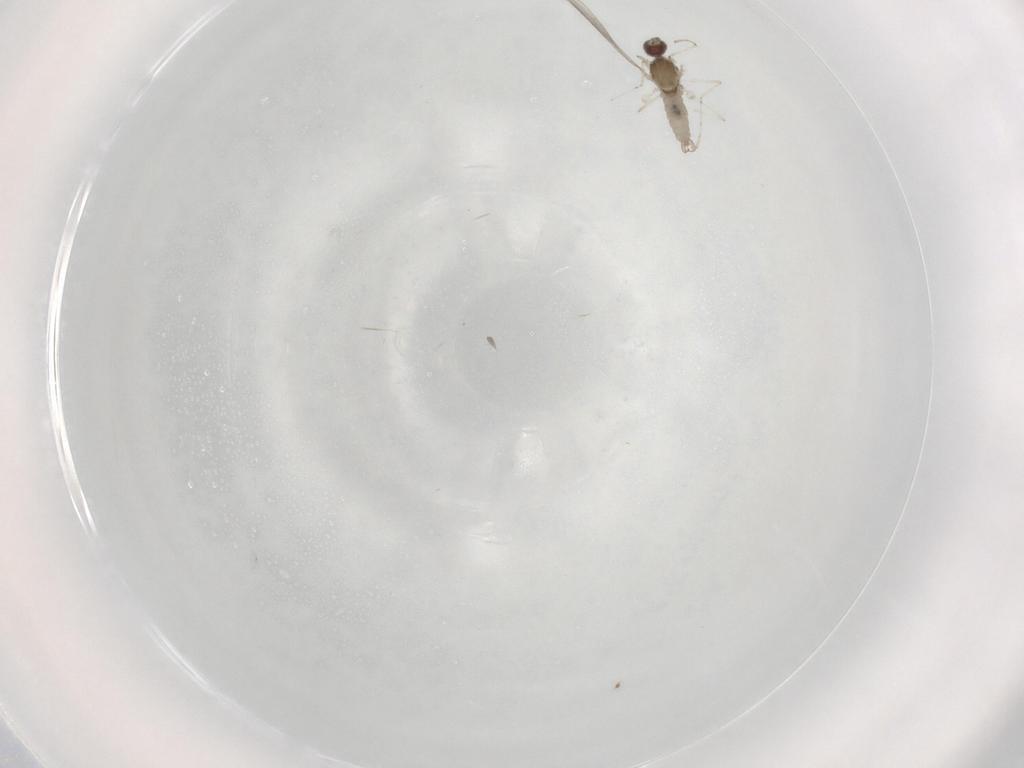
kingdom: Animalia
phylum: Arthropoda
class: Insecta
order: Diptera
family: Cecidomyiidae
